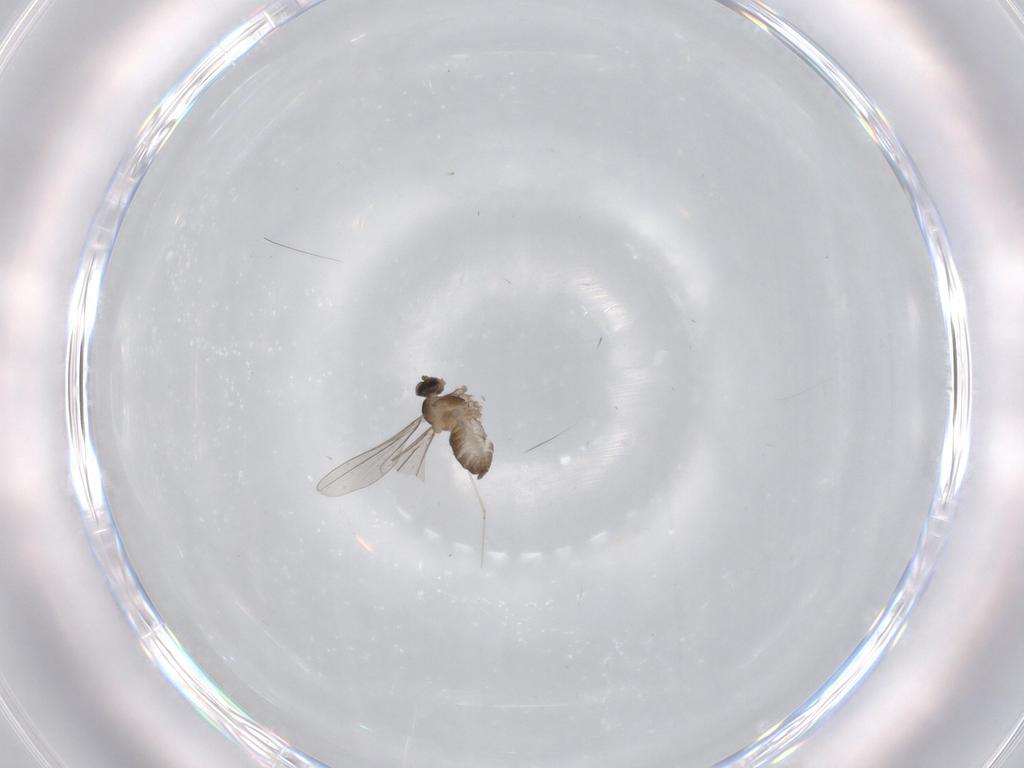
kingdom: Animalia
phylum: Arthropoda
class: Insecta
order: Diptera
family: Cecidomyiidae
